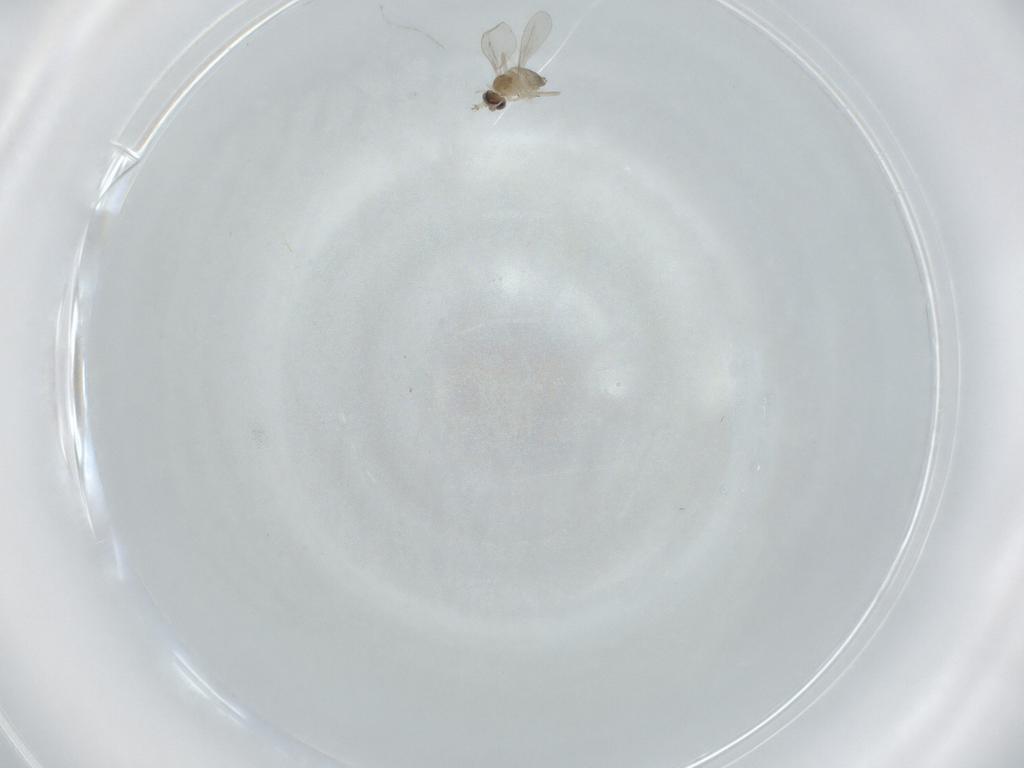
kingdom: Animalia
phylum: Arthropoda
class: Insecta
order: Diptera
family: Cecidomyiidae
